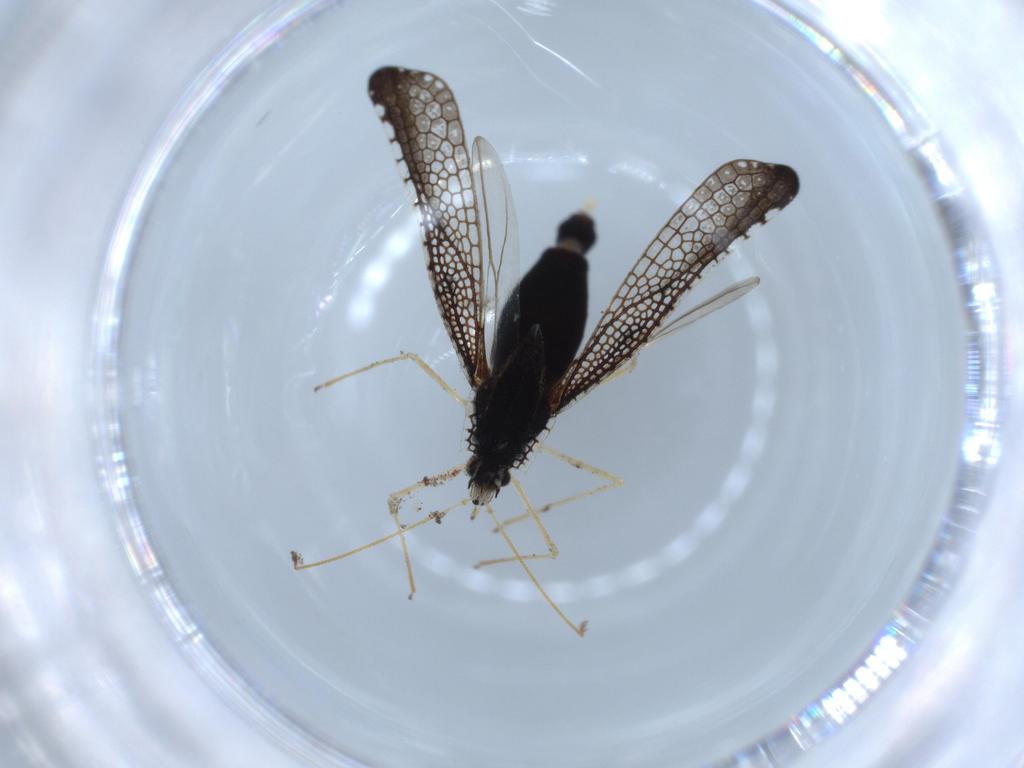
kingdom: Animalia
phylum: Arthropoda
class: Insecta
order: Hemiptera
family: Tingidae
